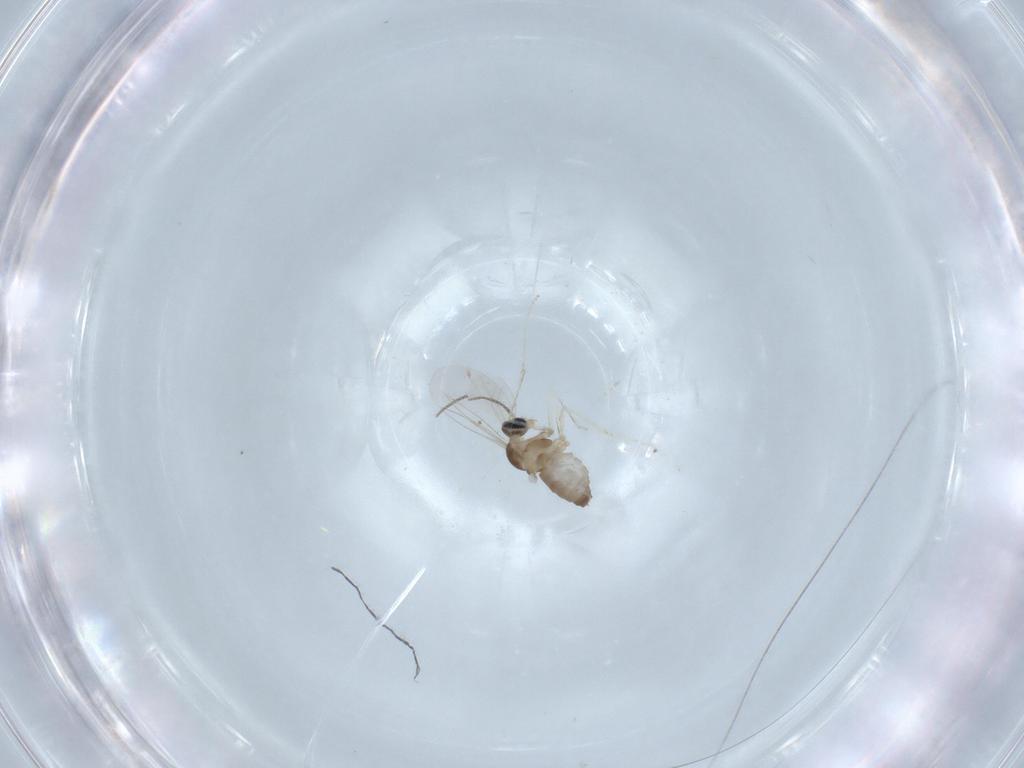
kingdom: Animalia
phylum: Arthropoda
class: Insecta
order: Diptera
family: Cecidomyiidae
